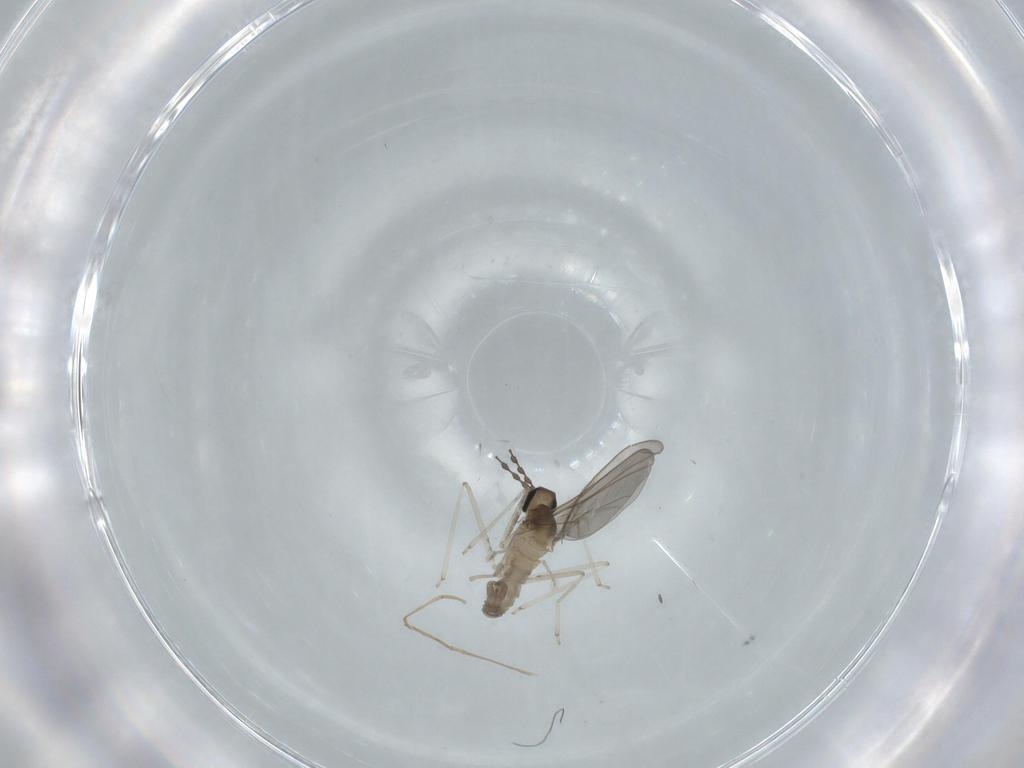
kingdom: Animalia
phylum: Arthropoda
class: Insecta
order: Diptera
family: Cecidomyiidae
